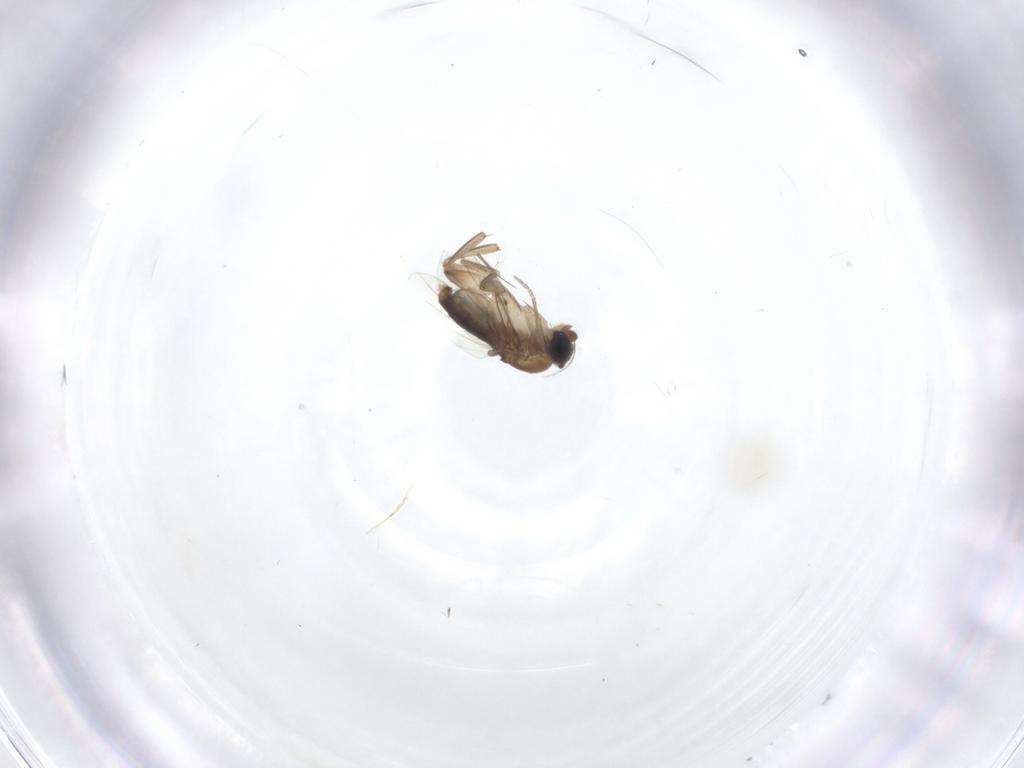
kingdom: Animalia
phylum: Arthropoda
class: Insecta
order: Diptera
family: Phoridae
